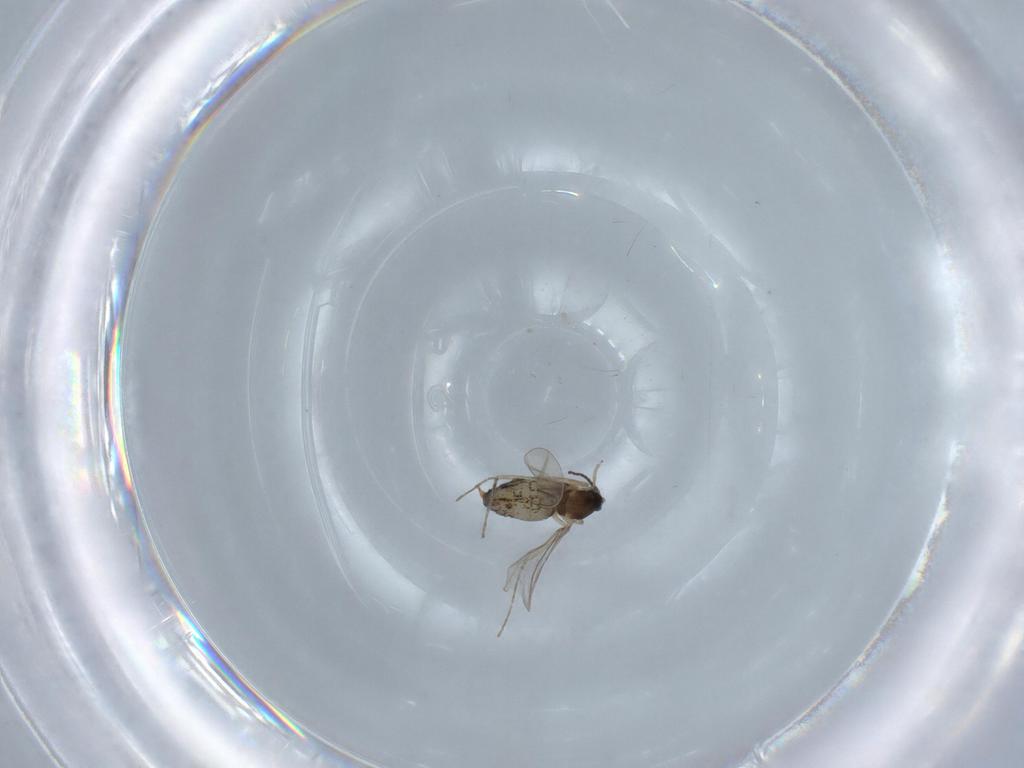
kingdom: Animalia
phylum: Arthropoda
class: Insecta
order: Diptera
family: Cecidomyiidae
